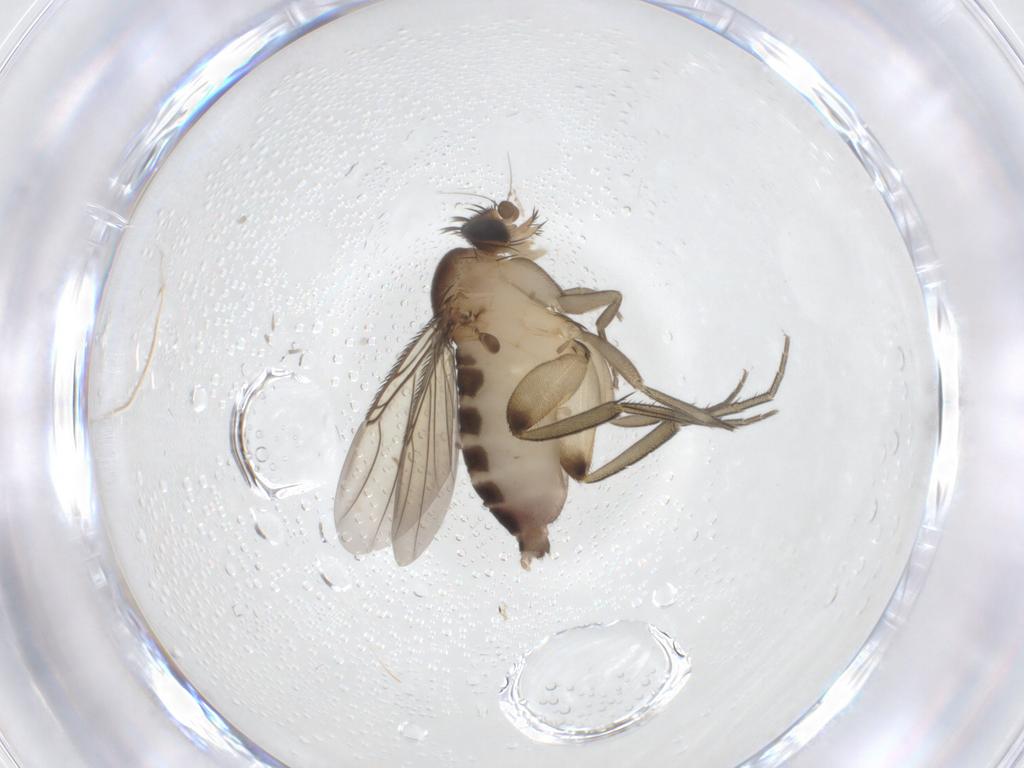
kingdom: Animalia
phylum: Arthropoda
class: Insecta
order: Diptera
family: Phoridae
